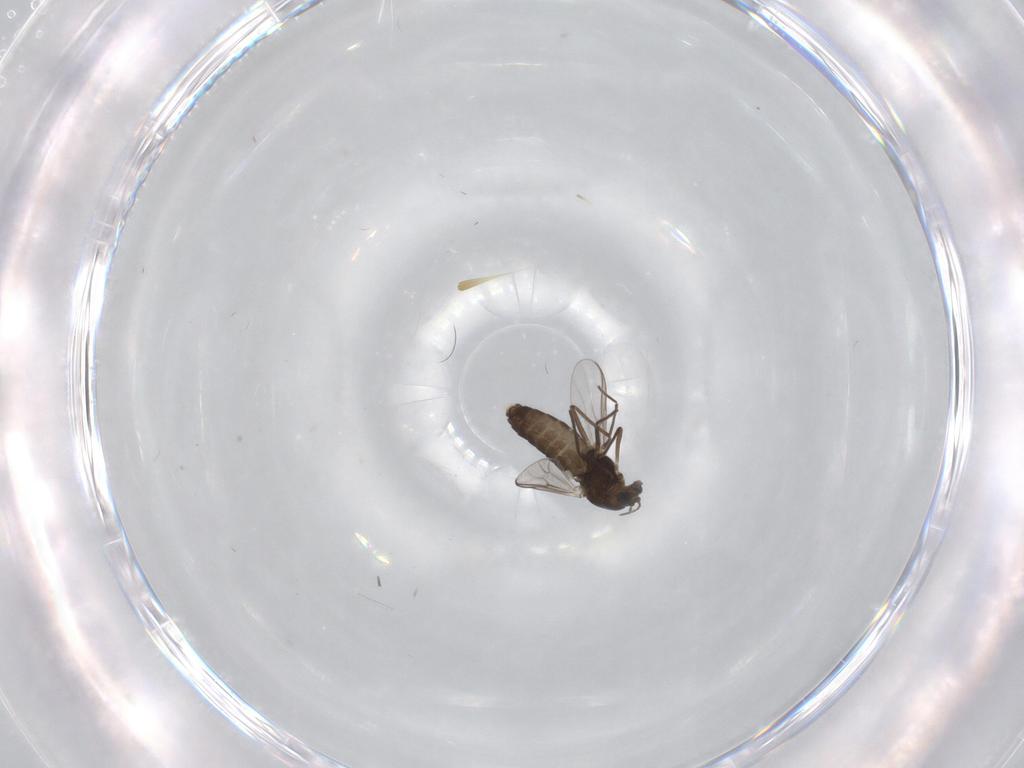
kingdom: Animalia
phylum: Arthropoda
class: Insecta
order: Diptera
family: Chironomidae
